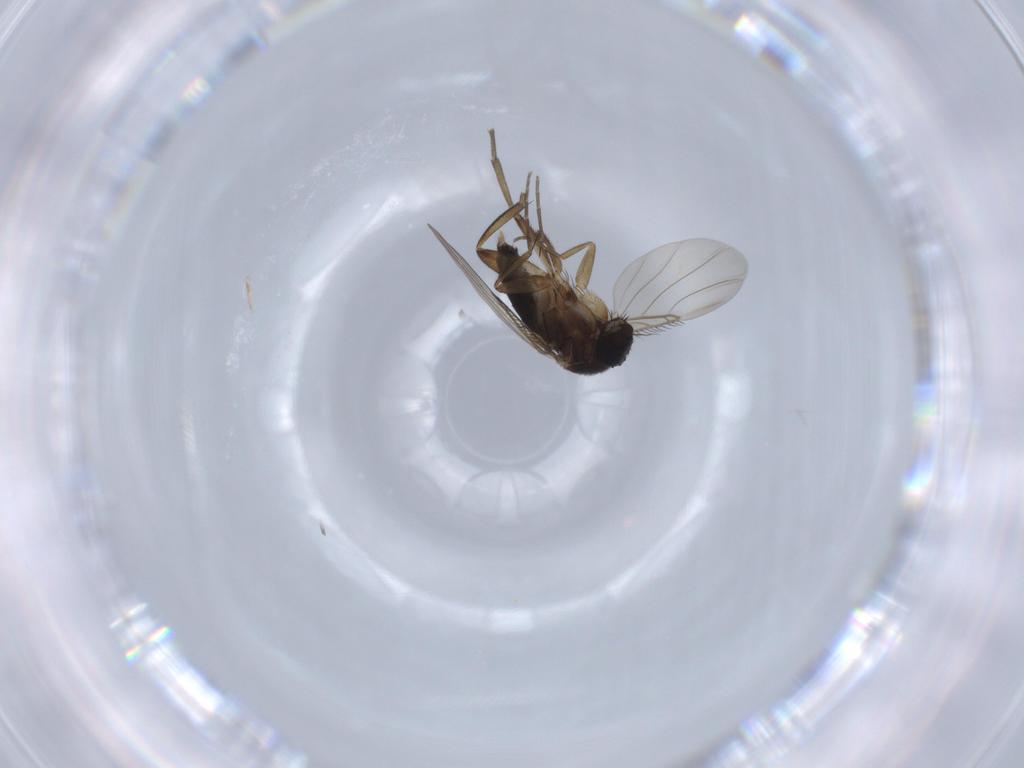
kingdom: Animalia
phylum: Arthropoda
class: Insecta
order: Diptera
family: Phoridae
